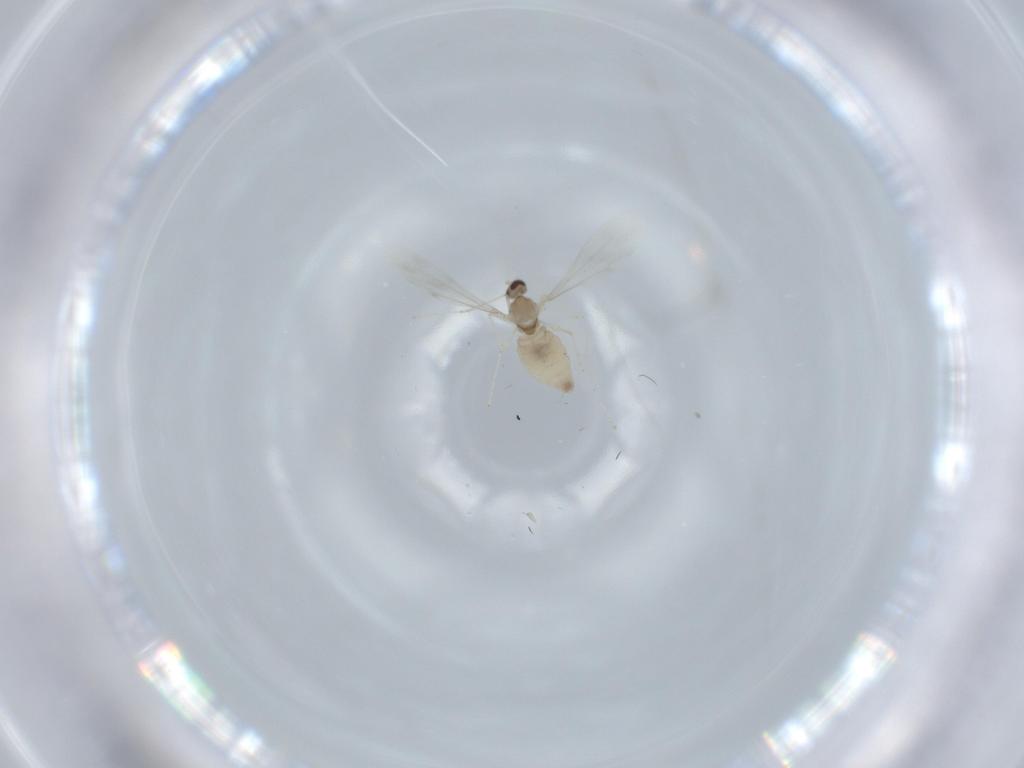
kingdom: Animalia
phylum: Arthropoda
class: Insecta
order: Diptera
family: Cecidomyiidae
